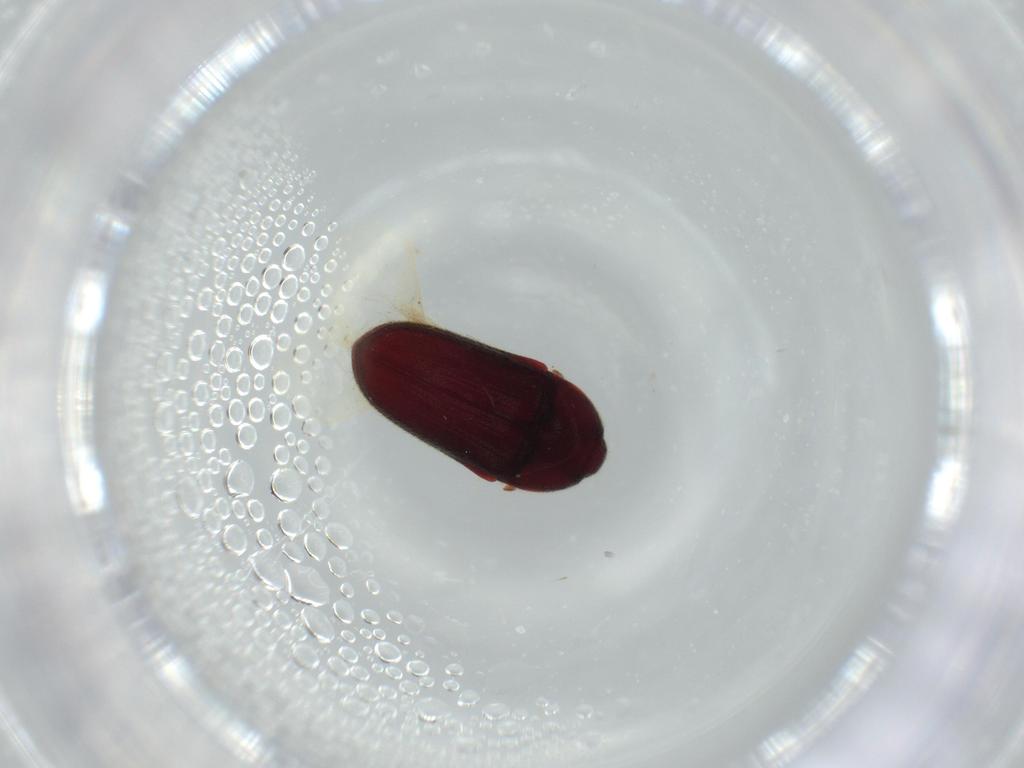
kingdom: Animalia
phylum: Arthropoda
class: Insecta
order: Coleoptera
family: Throscidae
